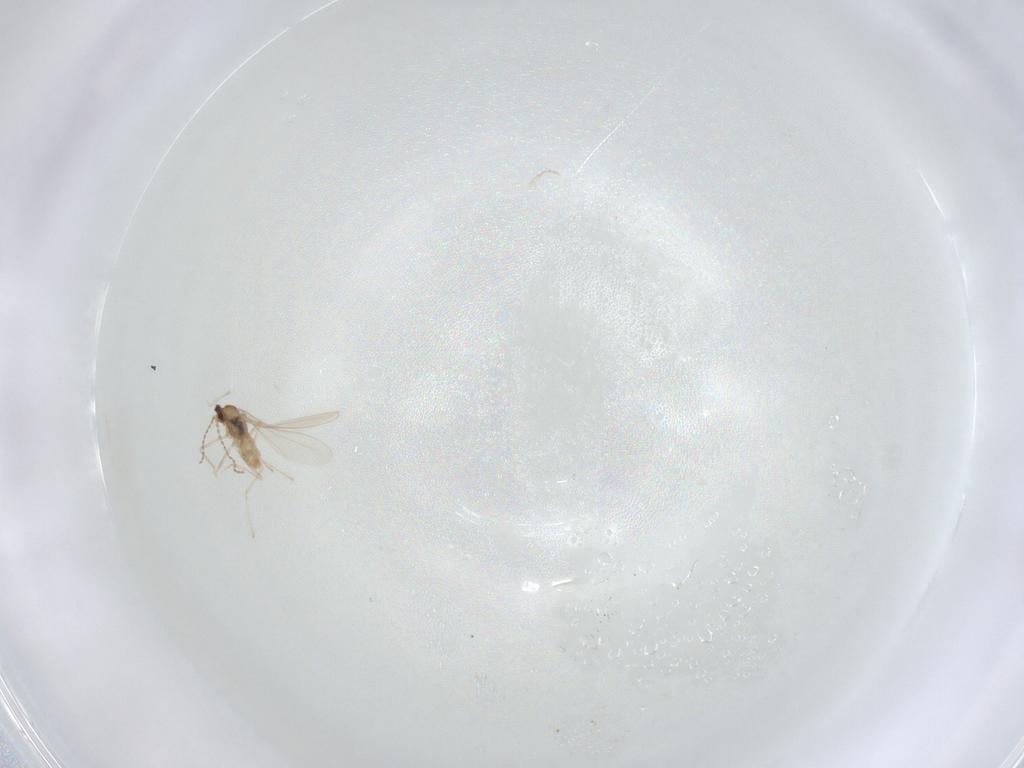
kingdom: Animalia
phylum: Arthropoda
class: Insecta
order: Diptera
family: Cecidomyiidae
